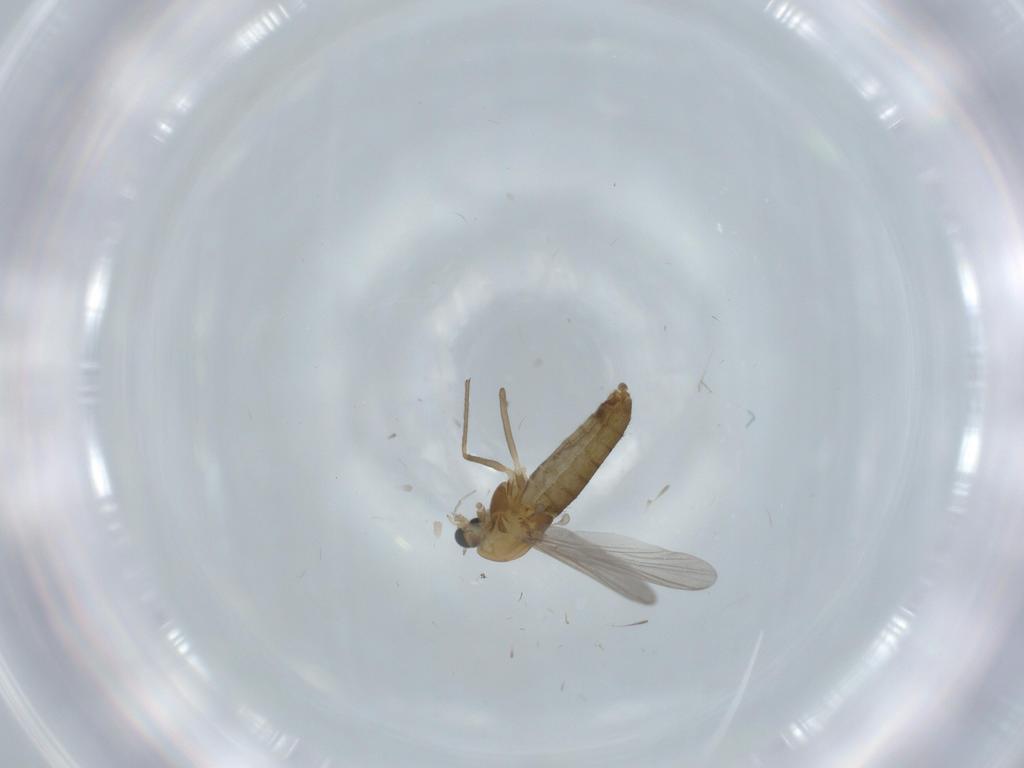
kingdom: Animalia
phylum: Arthropoda
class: Insecta
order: Diptera
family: Chironomidae
